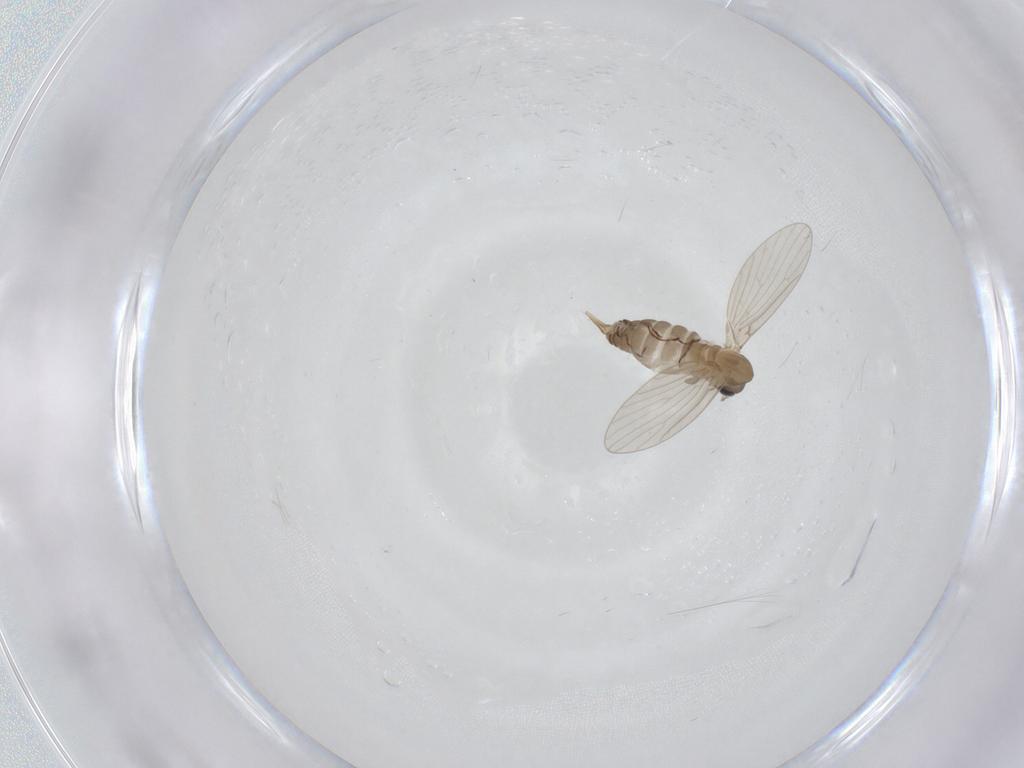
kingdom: Animalia
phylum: Arthropoda
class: Insecta
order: Diptera
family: Psychodidae
